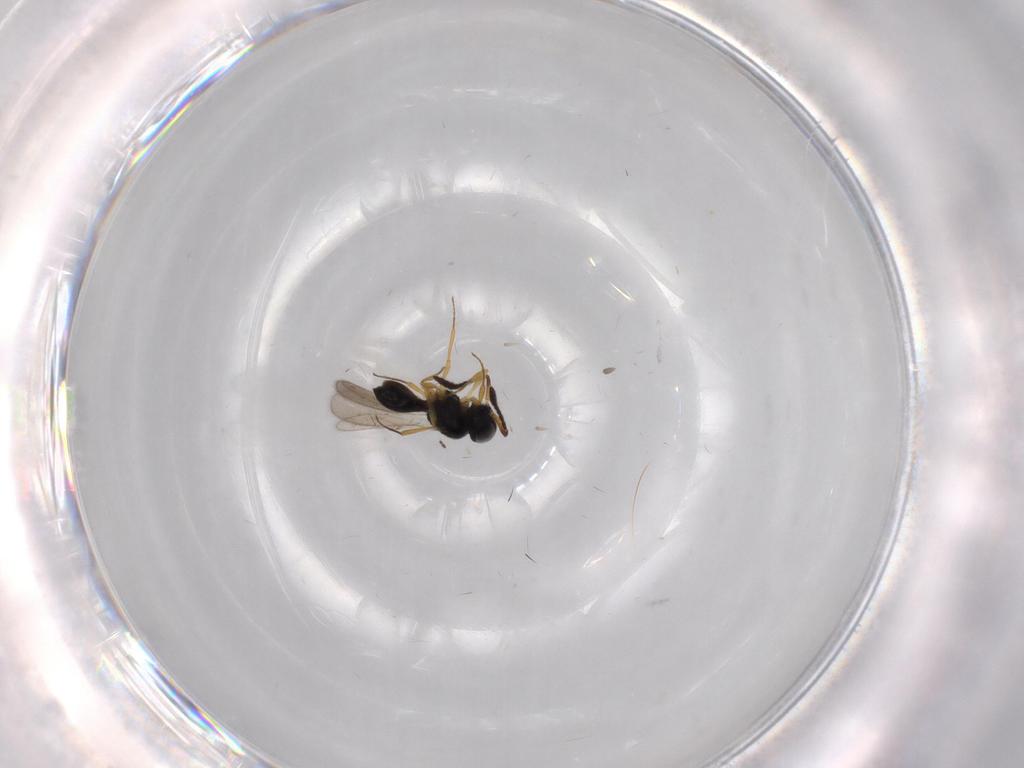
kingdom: Animalia
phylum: Arthropoda
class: Insecta
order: Hymenoptera
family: Scelionidae
